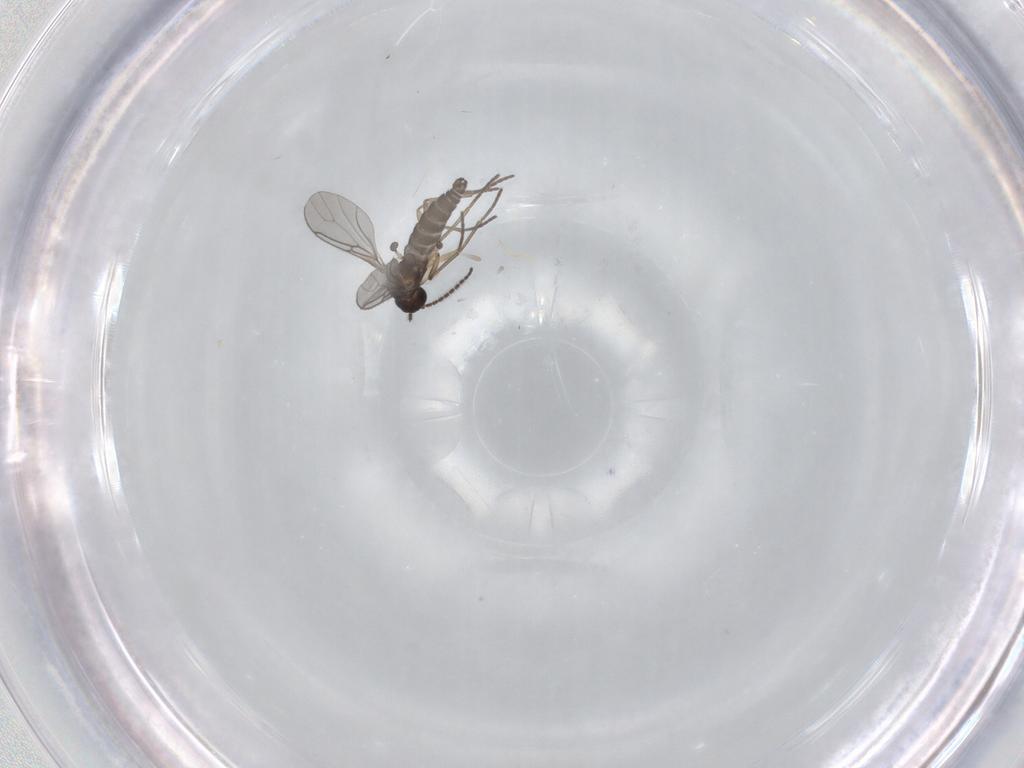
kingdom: Animalia
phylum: Arthropoda
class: Insecta
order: Diptera
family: Sciaridae
